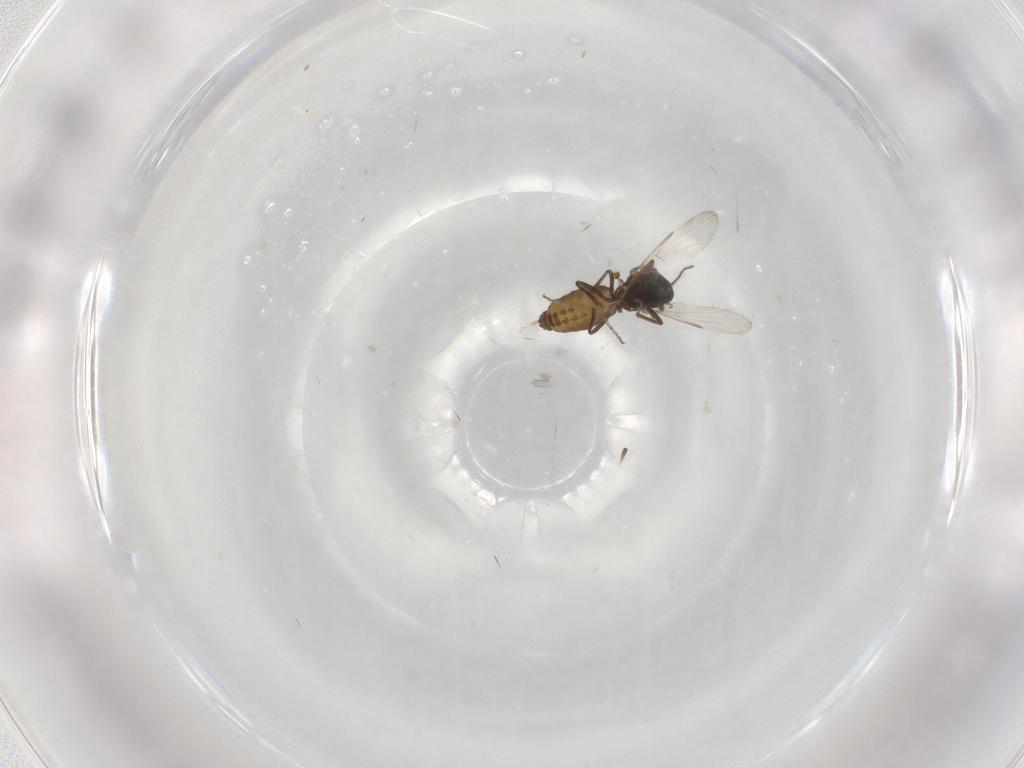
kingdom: Animalia
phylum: Arthropoda
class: Insecta
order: Diptera
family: Ceratopogonidae
